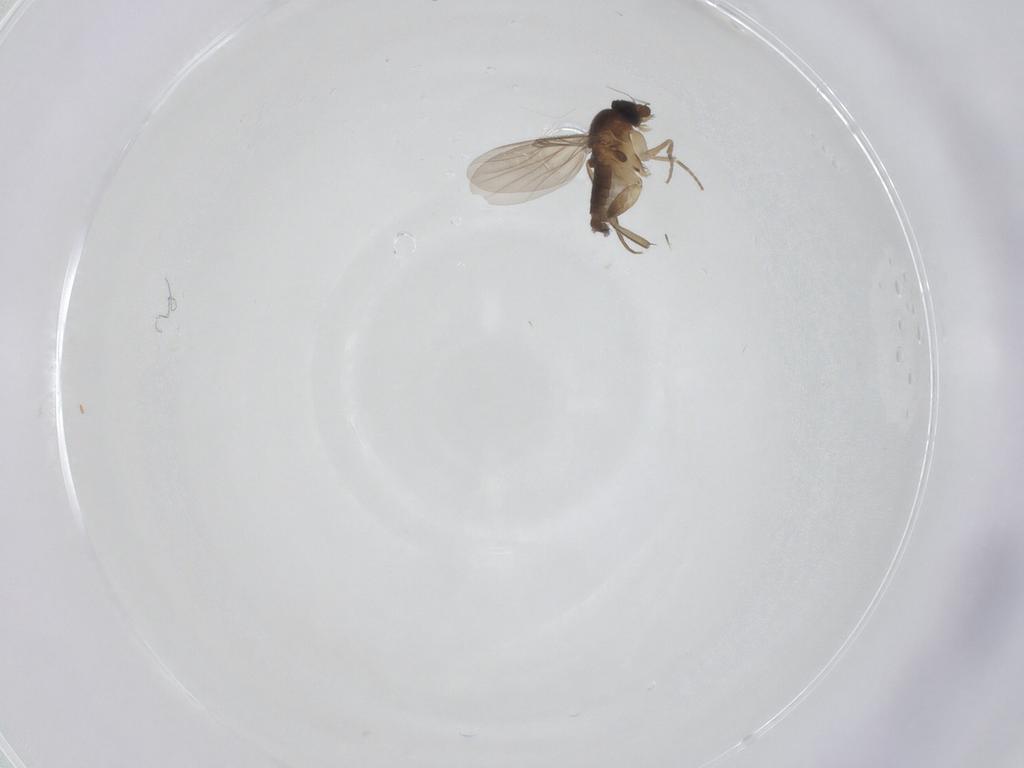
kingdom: Animalia
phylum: Arthropoda
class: Insecta
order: Diptera
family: Phoridae
